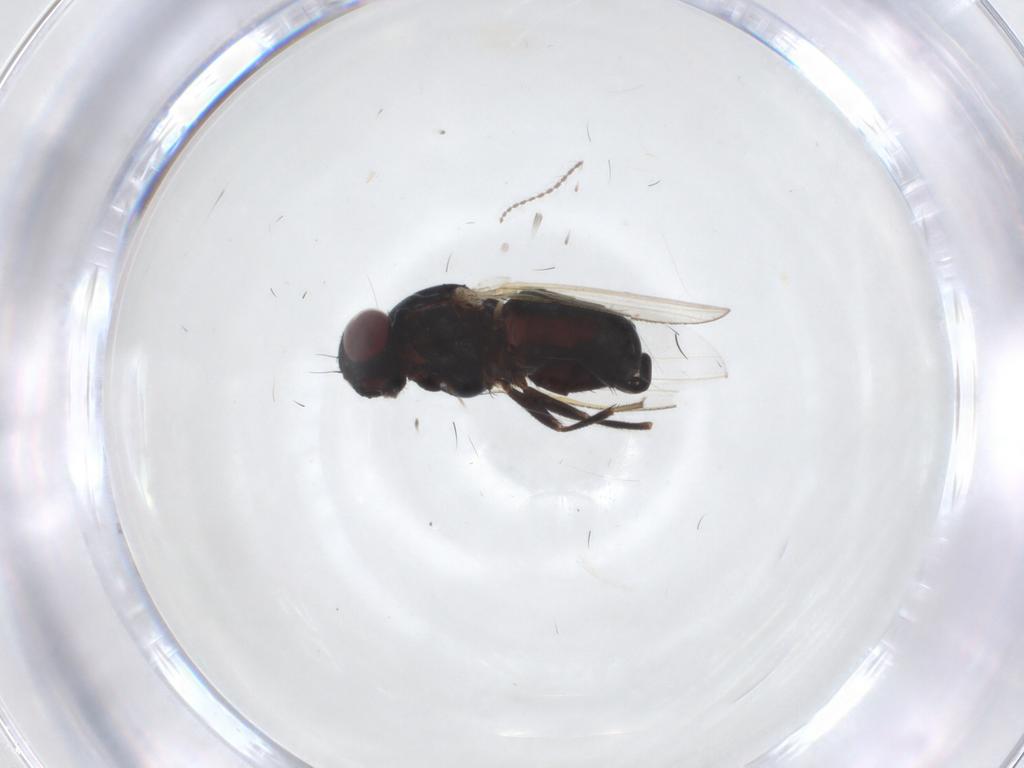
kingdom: Animalia
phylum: Arthropoda
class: Insecta
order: Diptera
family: Carnidae
